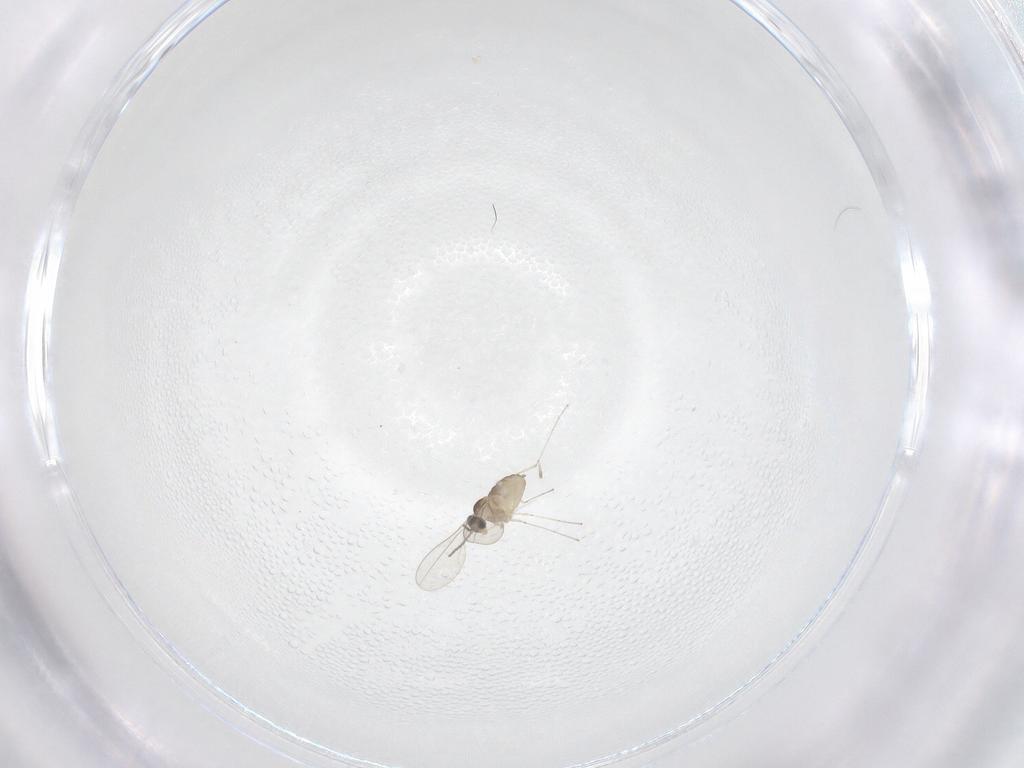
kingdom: Animalia
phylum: Arthropoda
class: Insecta
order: Diptera
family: Cecidomyiidae
